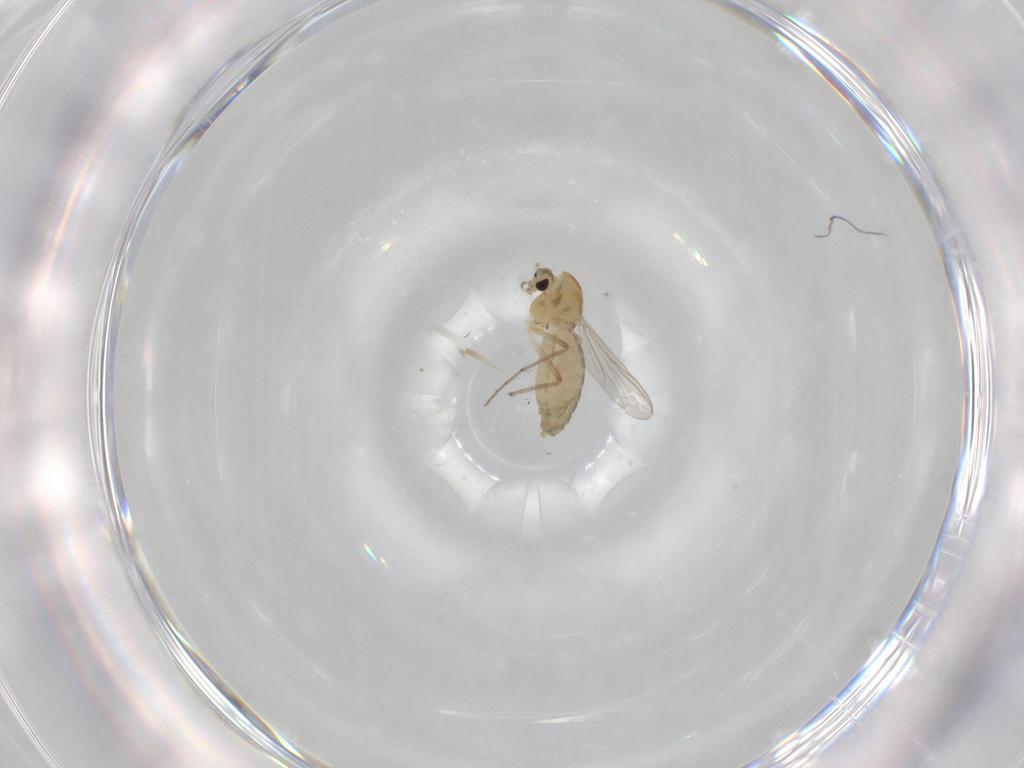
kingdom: Animalia
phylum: Arthropoda
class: Insecta
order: Diptera
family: Chironomidae
